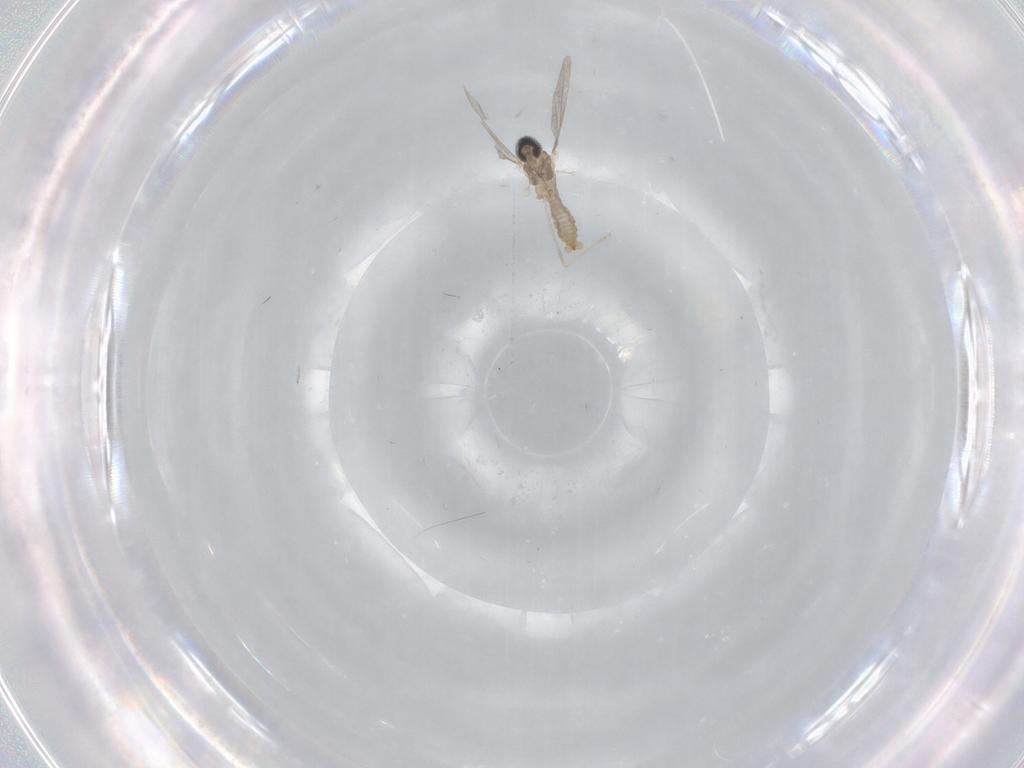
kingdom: Animalia
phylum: Arthropoda
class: Insecta
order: Diptera
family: Cecidomyiidae
